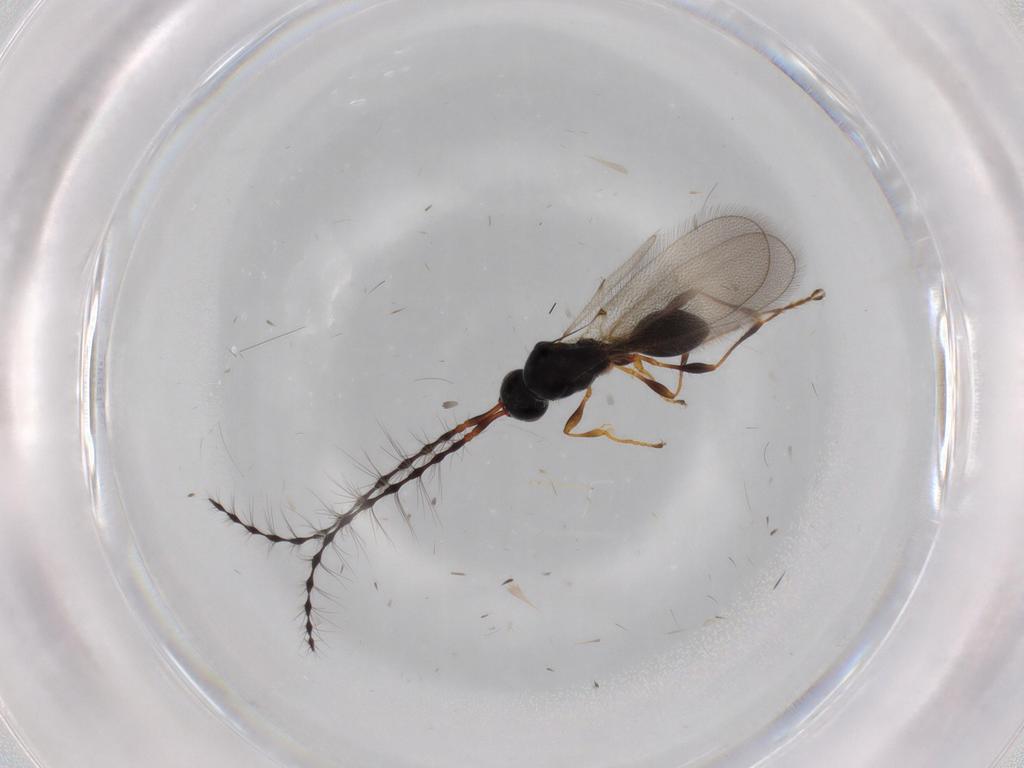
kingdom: Animalia
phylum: Arthropoda
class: Insecta
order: Hymenoptera
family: Diapriidae
